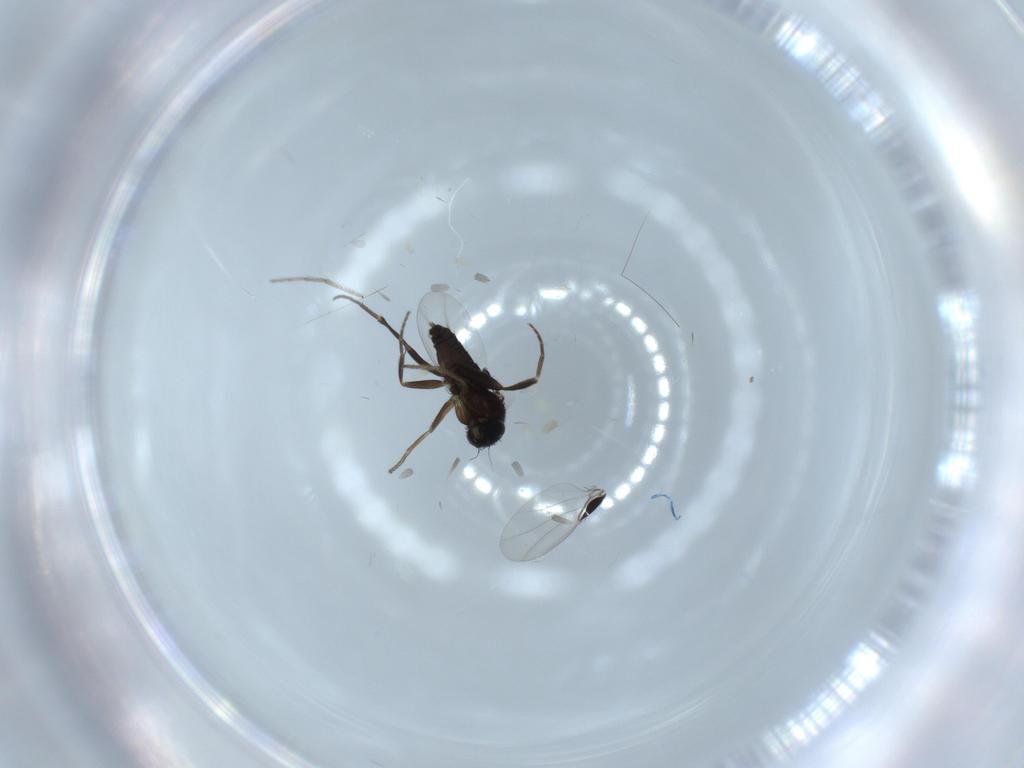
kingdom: Animalia
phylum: Arthropoda
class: Insecta
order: Diptera
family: Phoridae
